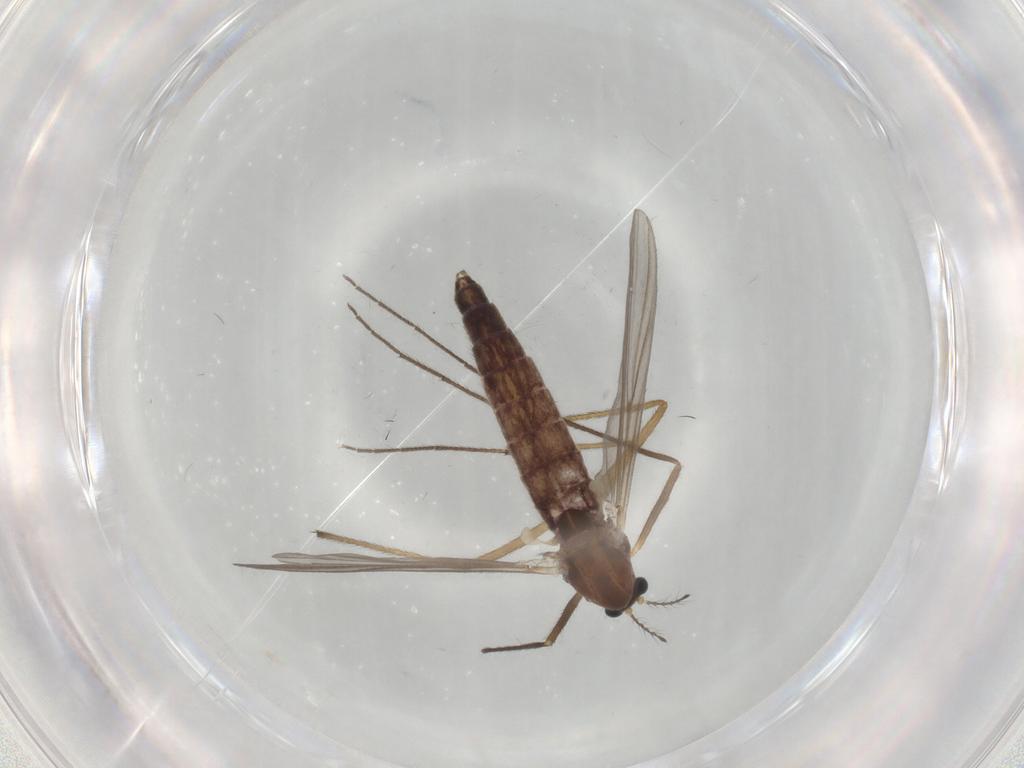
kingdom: Animalia
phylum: Arthropoda
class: Insecta
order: Diptera
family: Chironomidae
